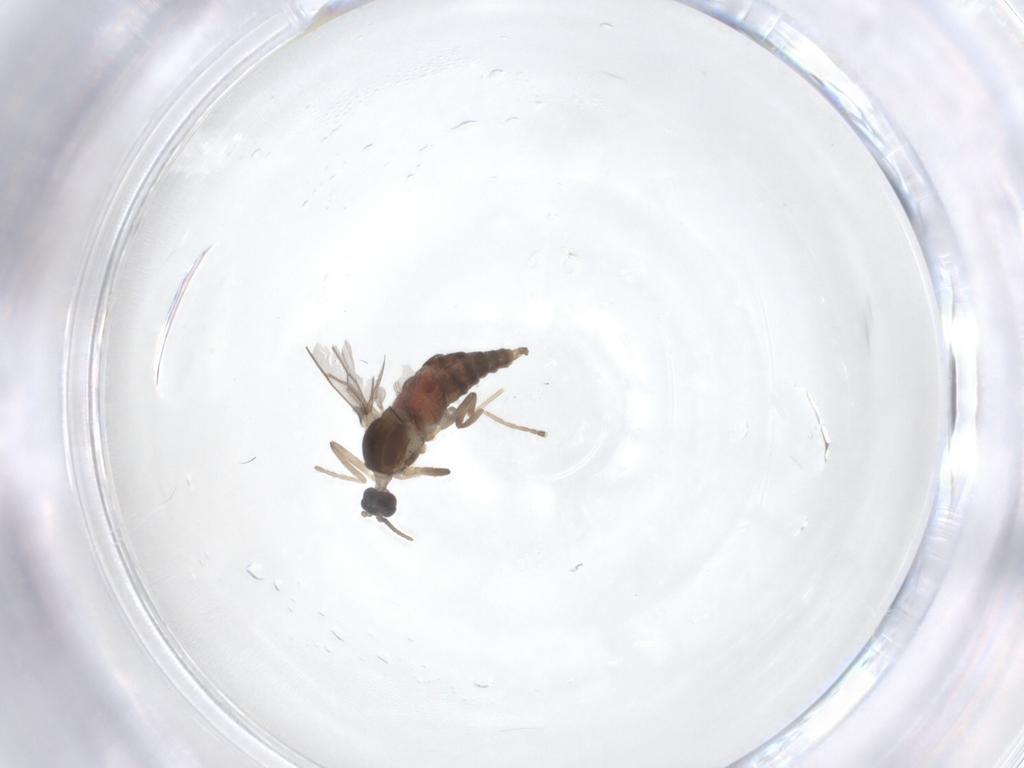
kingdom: Animalia
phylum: Arthropoda
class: Insecta
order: Diptera
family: Cecidomyiidae
